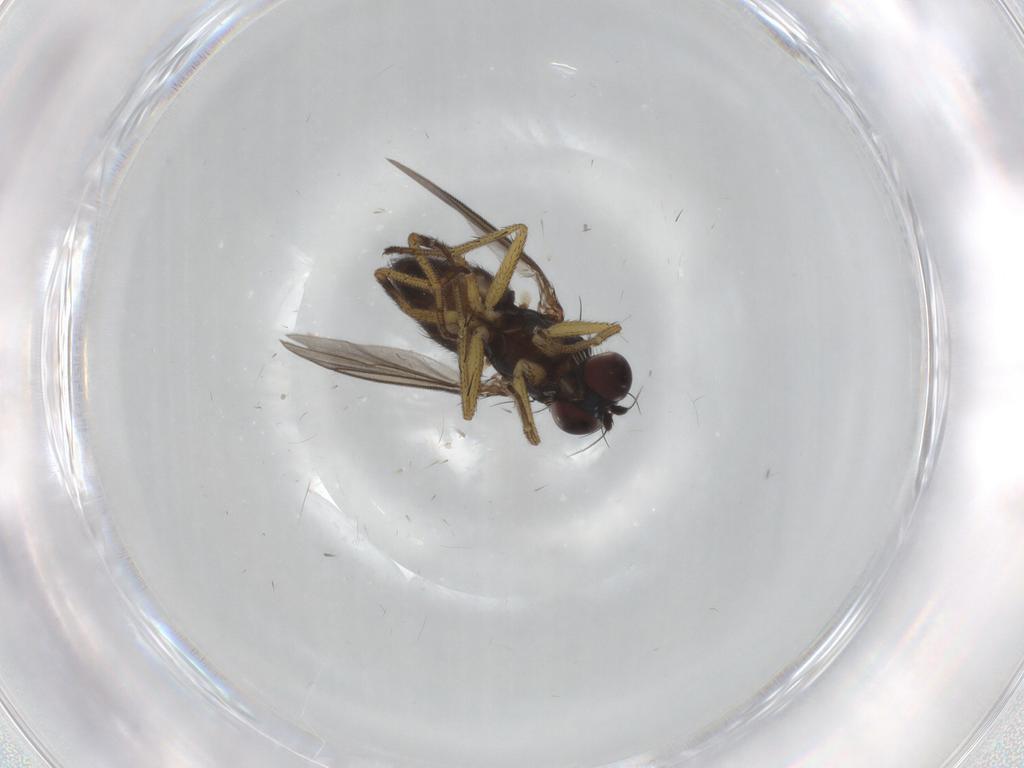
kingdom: Animalia
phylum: Arthropoda
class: Insecta
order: Diptera
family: Dolichopodidae
